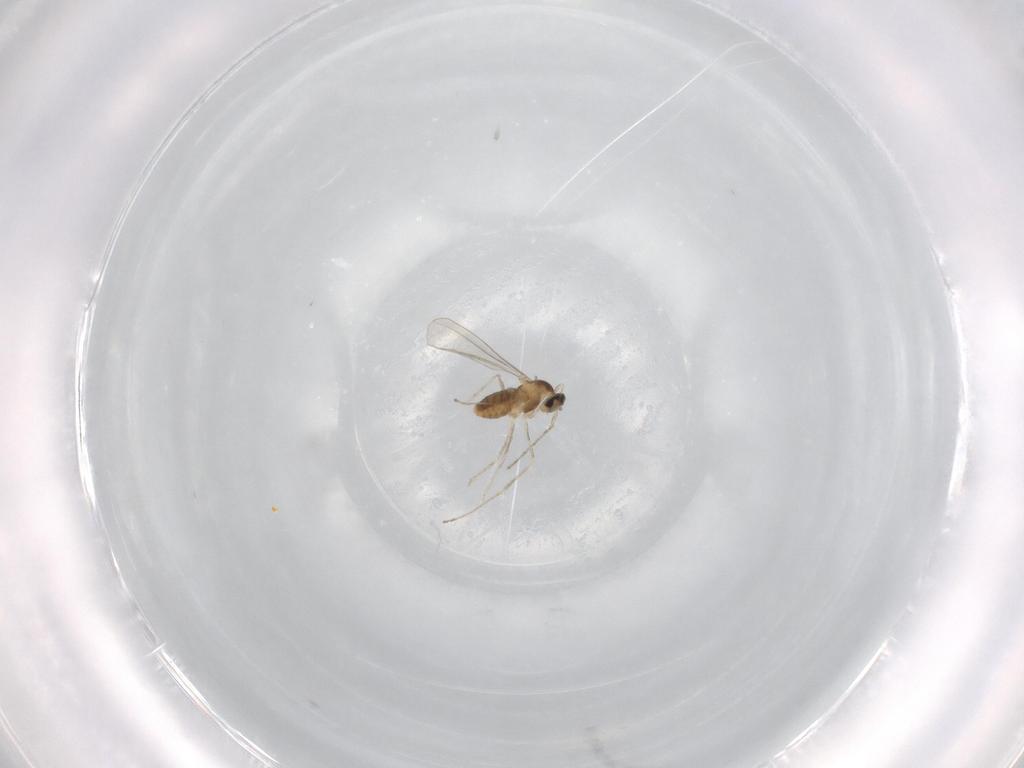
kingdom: Animalia
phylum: Arthropoda
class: Insecta
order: Diptera
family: Cecidomyiidae
